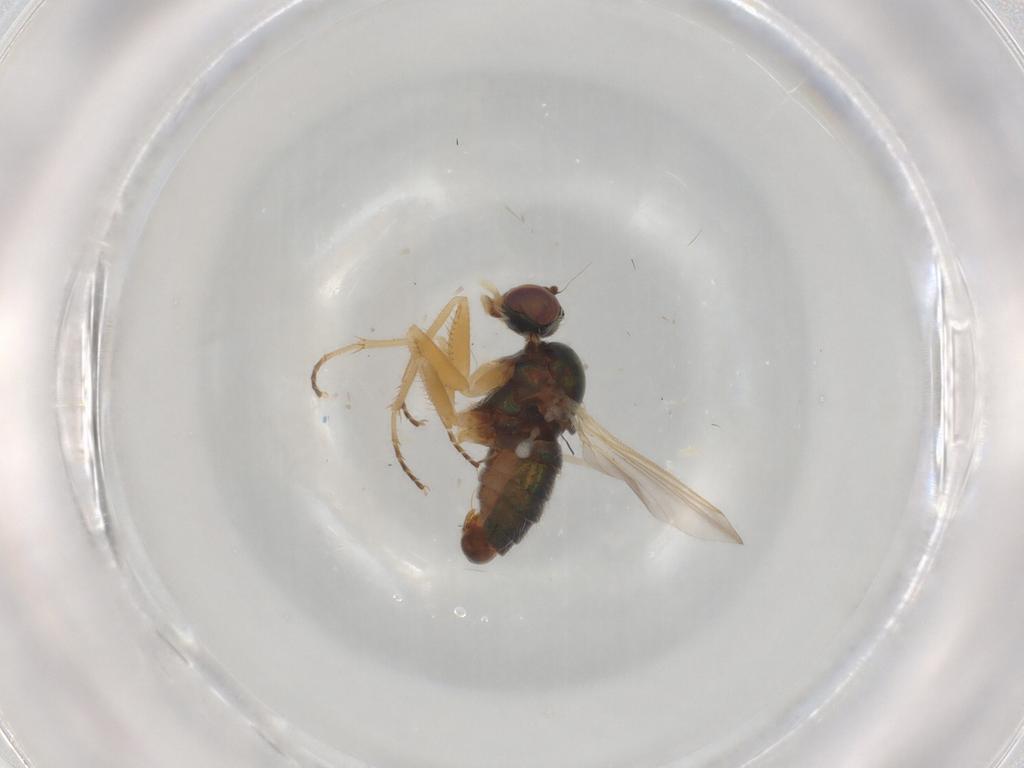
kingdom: Animalia
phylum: Arthropoda
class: Insecta
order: Diptera
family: Dolichopodidae
